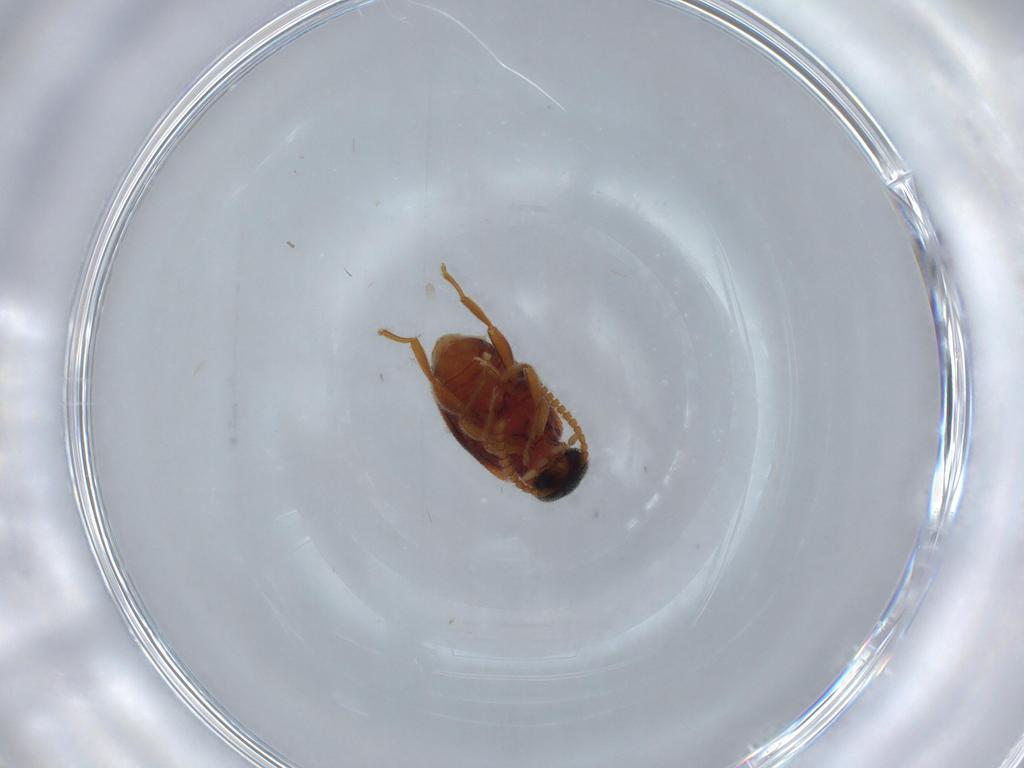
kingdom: Animalia
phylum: Arthropoda
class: Insecta
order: Coleoptera
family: Aderidae
